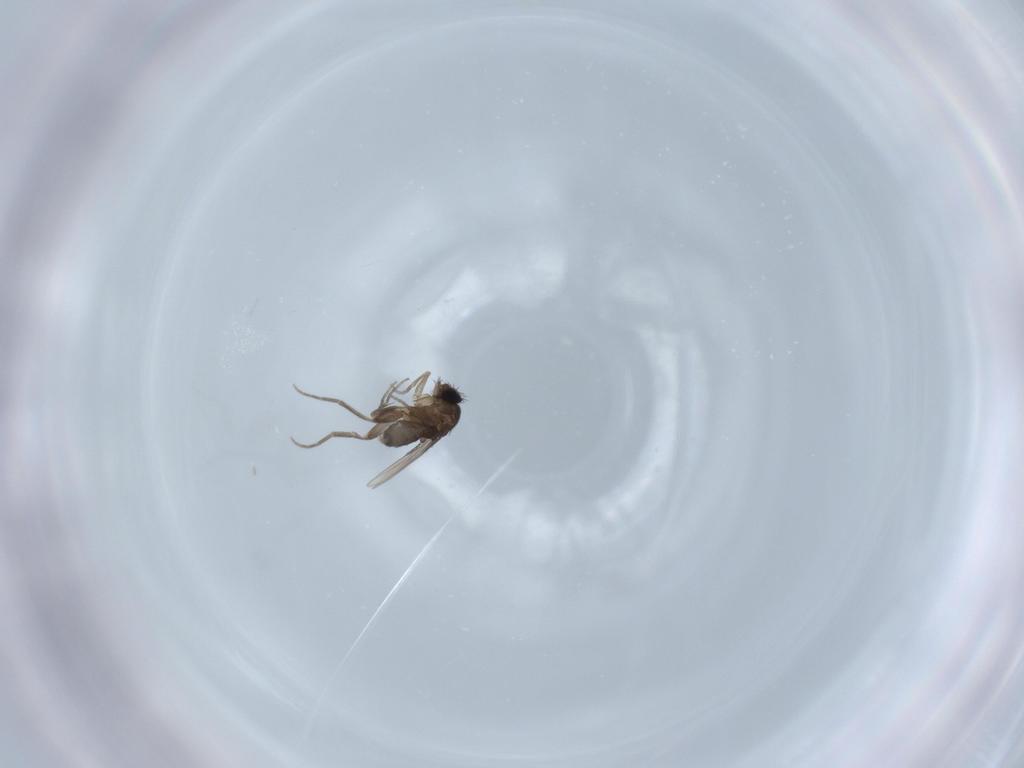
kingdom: Animalia
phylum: Arthropoda
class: Insecta
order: Diptera
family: Phoridae
